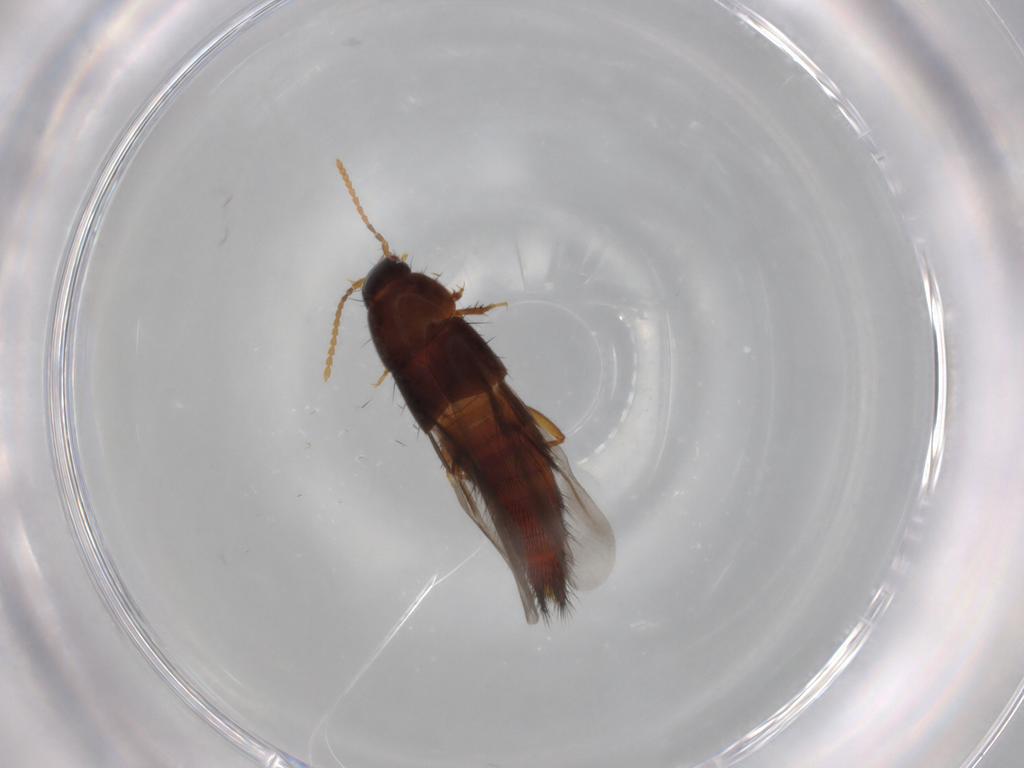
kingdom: Animalia
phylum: Arthropoda
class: Insecta
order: Coleoptera
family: Staphylinidae
